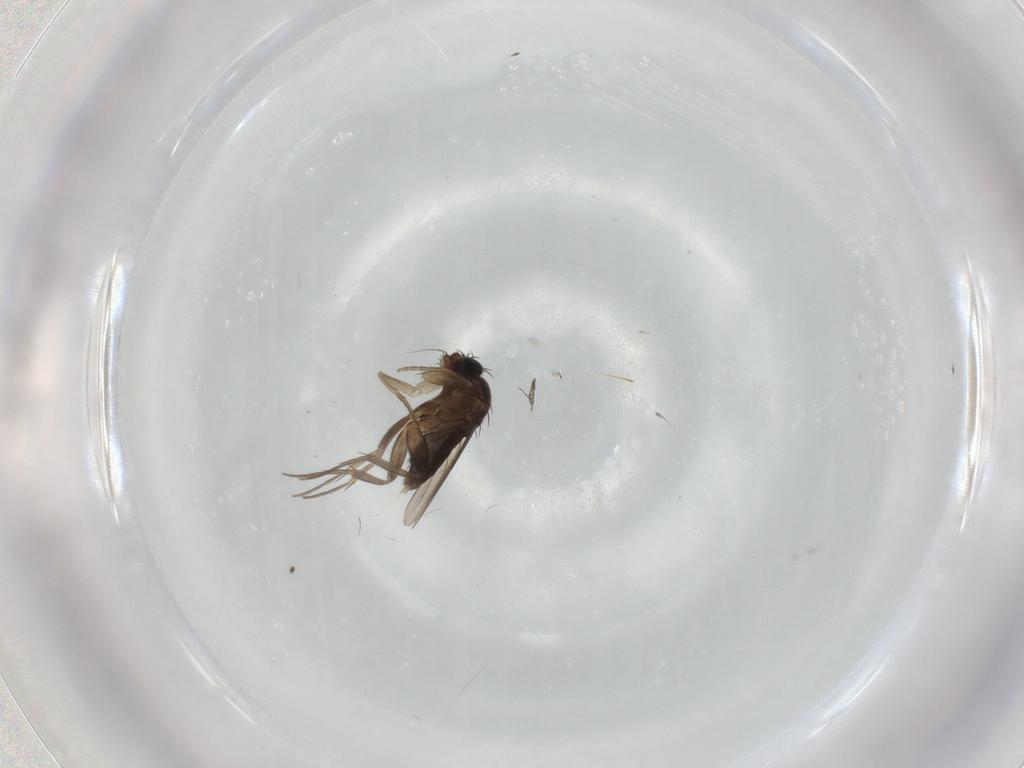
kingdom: Animalia
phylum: Arthropoda
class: Insecta
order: Diptera
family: Phoridae
